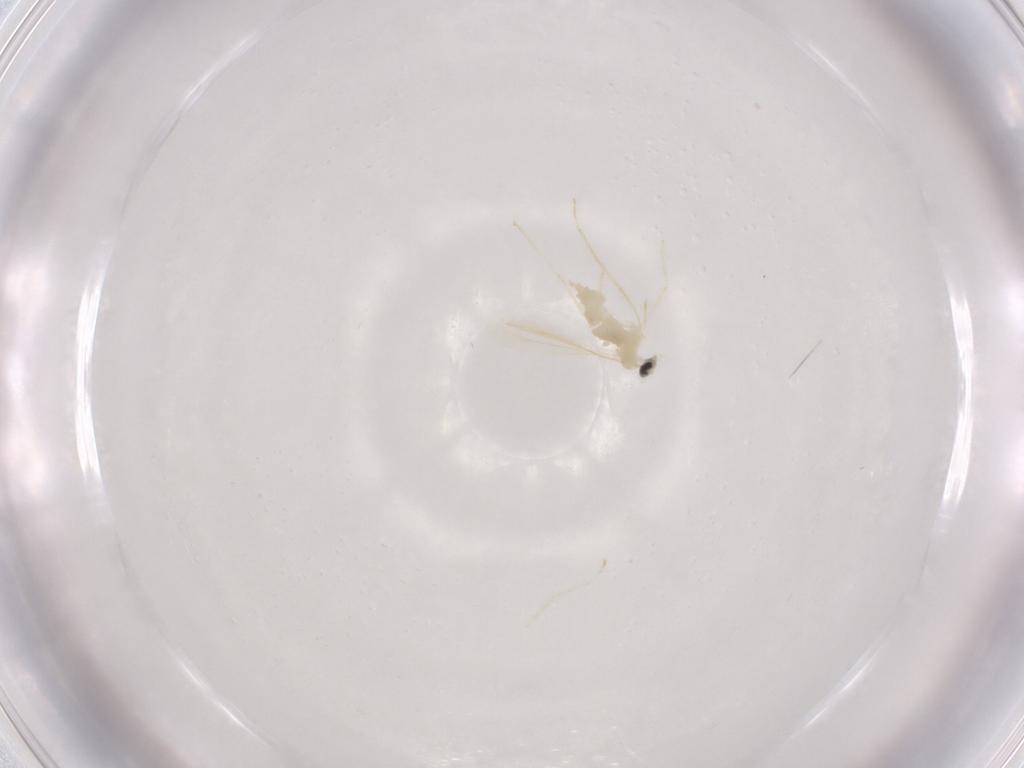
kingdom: Animalia
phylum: Arthropoda
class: Insecta
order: Diptera
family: Cecidomyiidae
